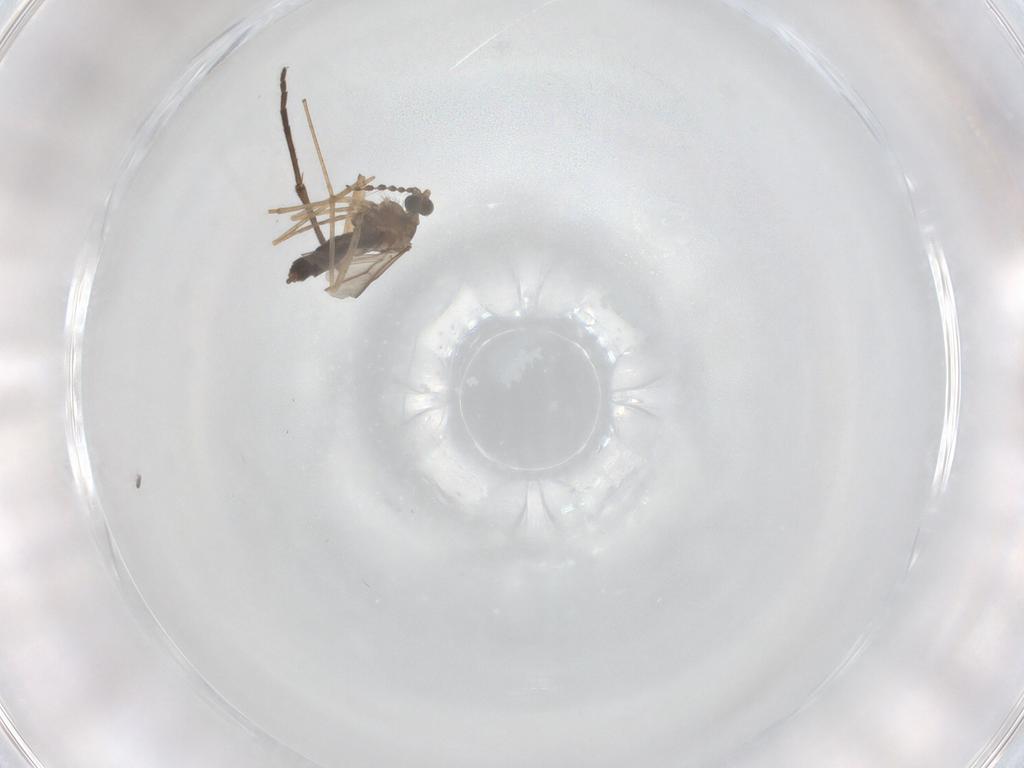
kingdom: Animalia
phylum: Arthropoda
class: Insecta
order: Diptera
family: Cecidomyiidae
